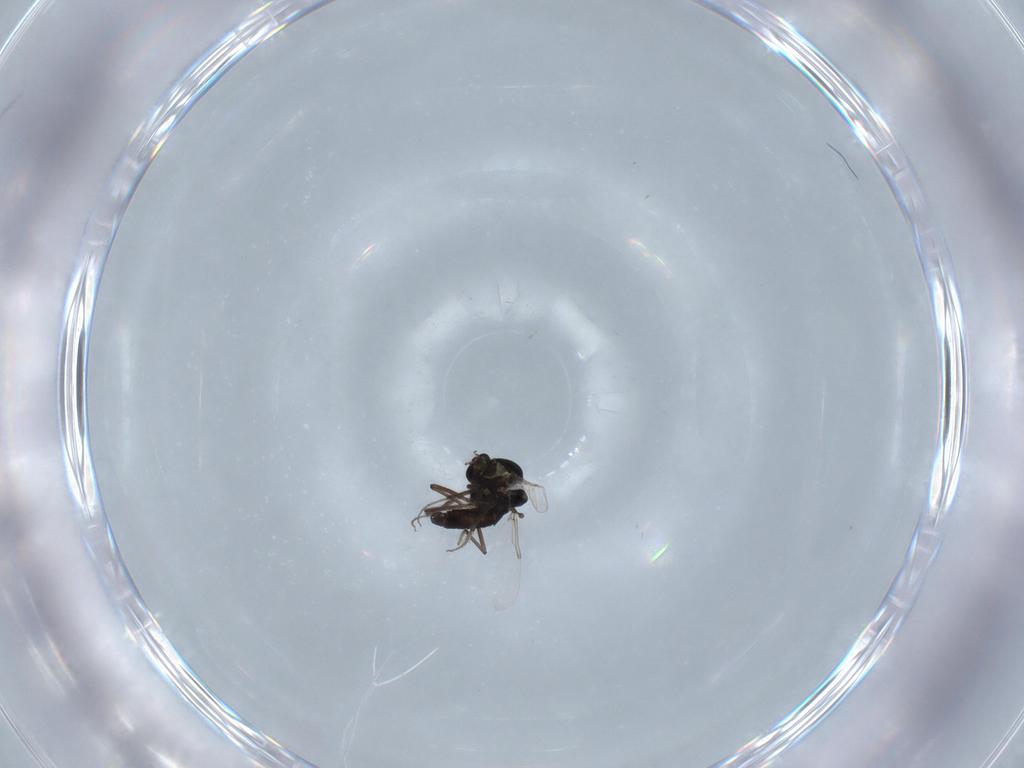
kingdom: Animalia
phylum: Arthropoda
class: Insecta
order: Diptera
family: Ceratopogonidae
